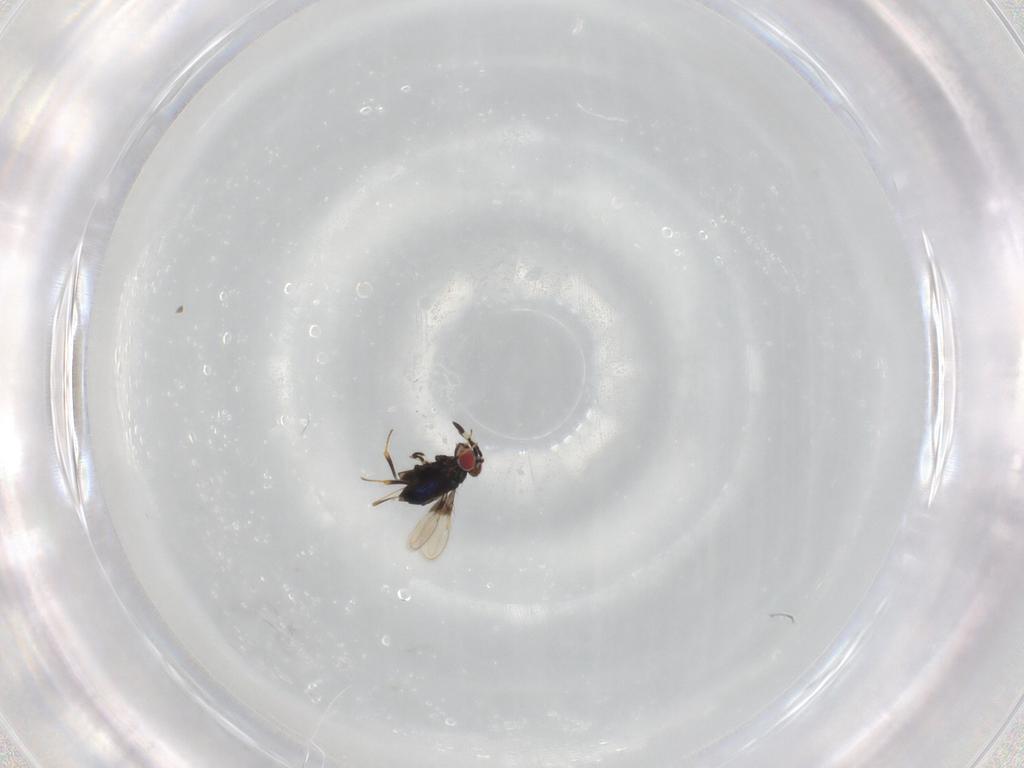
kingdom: Animalia
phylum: Arthropoda
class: Insecta
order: Hymenoptera
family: Azotidae
